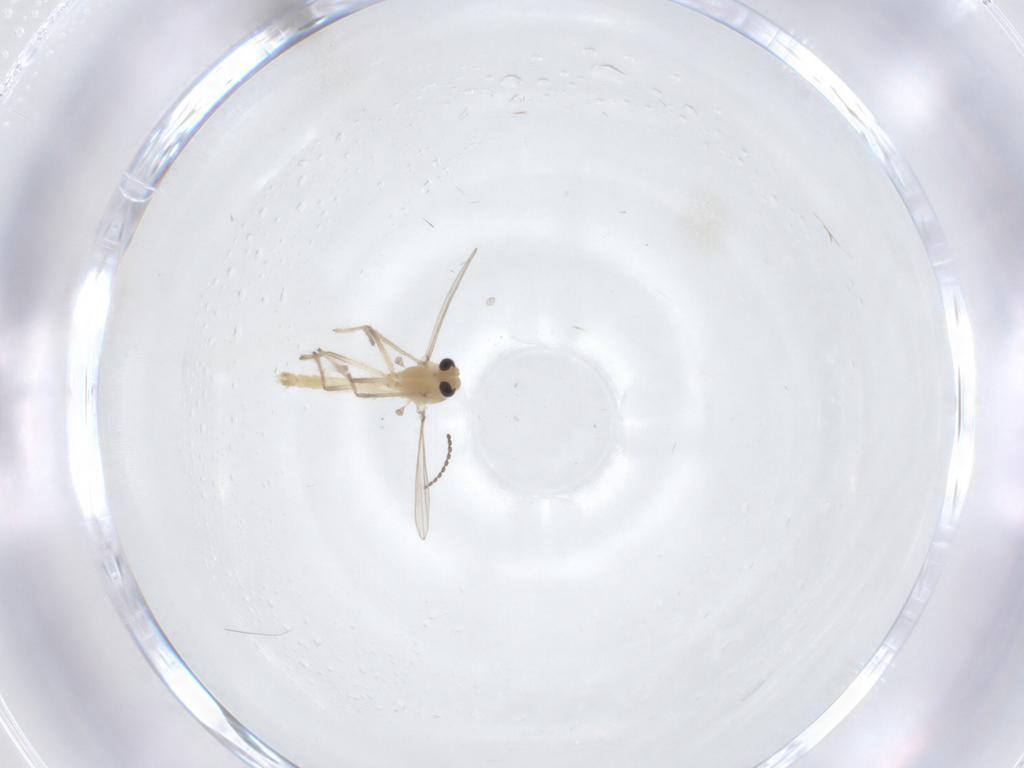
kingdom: Animalia
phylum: Arthropoda
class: Insecta
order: Diptera
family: Chironomidae
